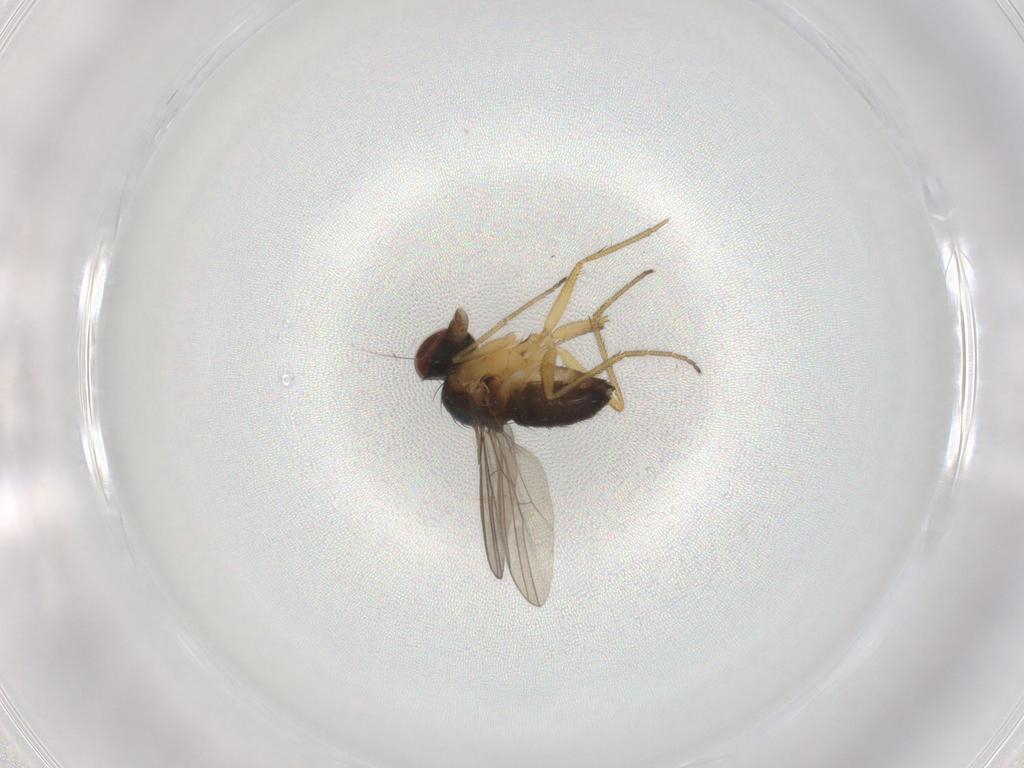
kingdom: Animalia
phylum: Arthropoda
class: Insecta
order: Diptera
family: Dolichopodidae
